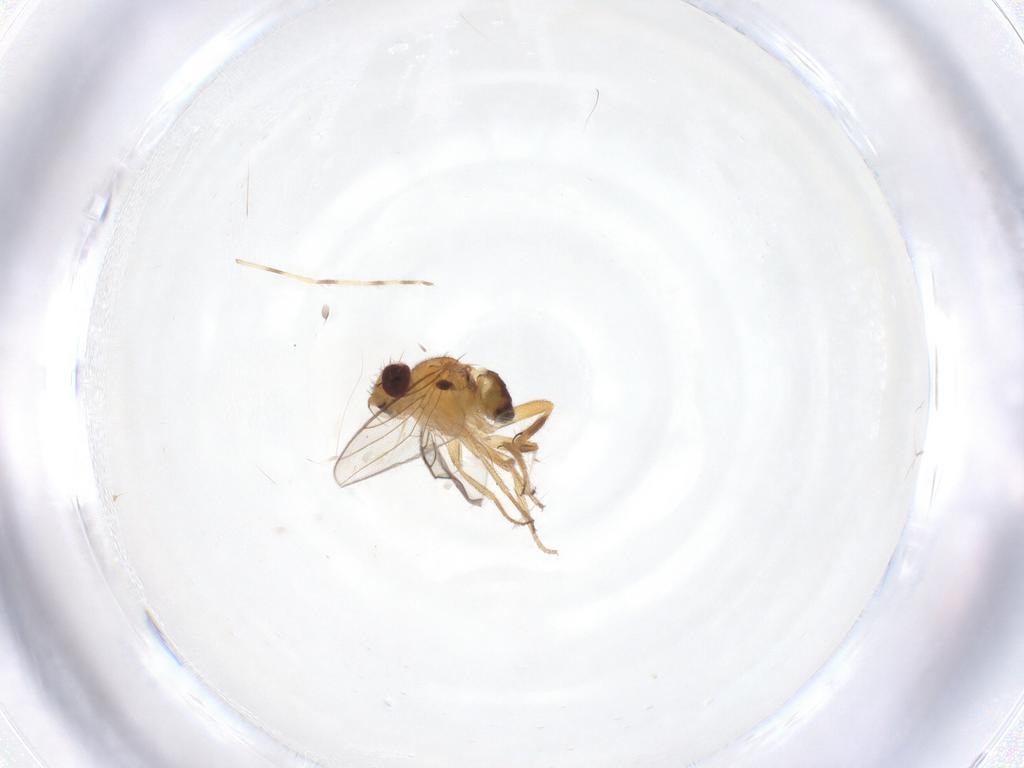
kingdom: Animalia
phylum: Arthropoda
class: Insecta
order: Diptera
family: Chloropidae
